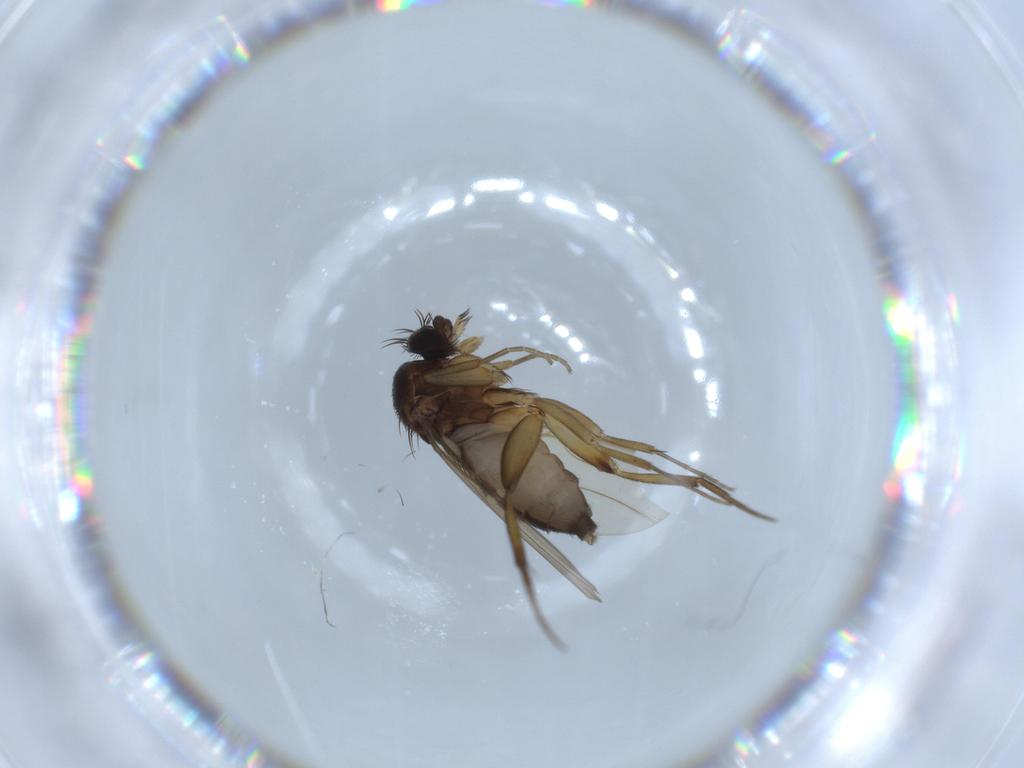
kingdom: Animalia
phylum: Arthropoda
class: Insecta
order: Diptera
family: Phoridae
